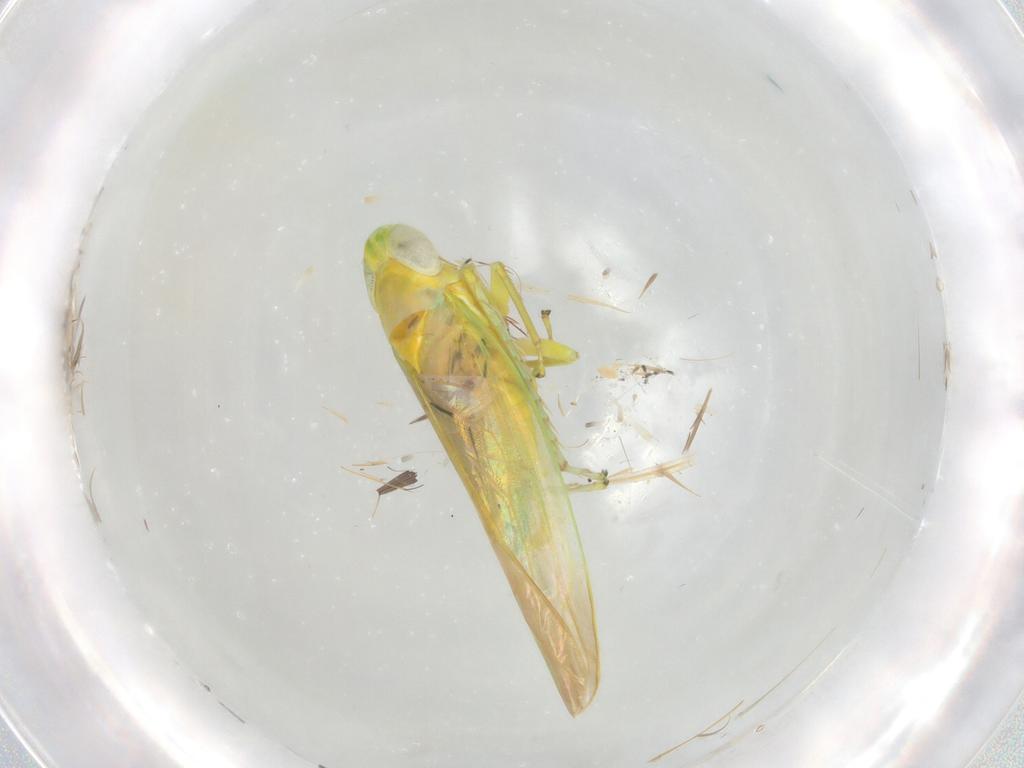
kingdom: Animalia
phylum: Arthropoda
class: Insecta
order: Hemiptera
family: Cicadellidae
